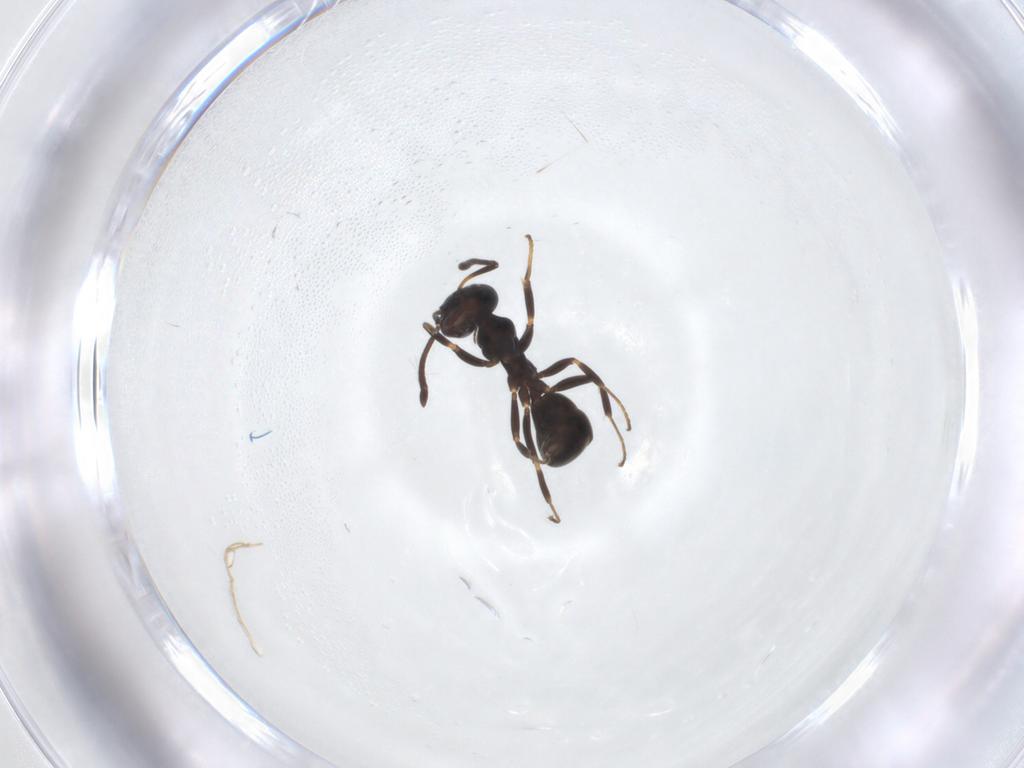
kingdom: Animalia
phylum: Arthropoda
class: Insecta
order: Hymenoptera
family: Formicidae
